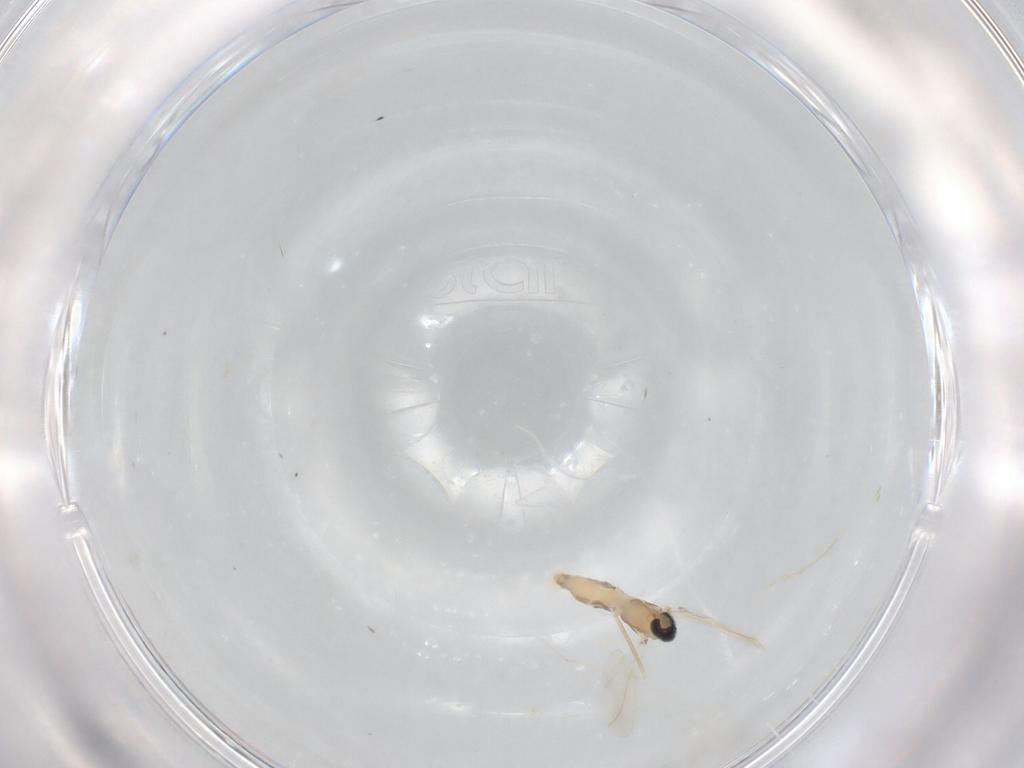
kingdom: Animalia
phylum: Arthropoda
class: Insecta
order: Diptera
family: Cecidomyiidae
